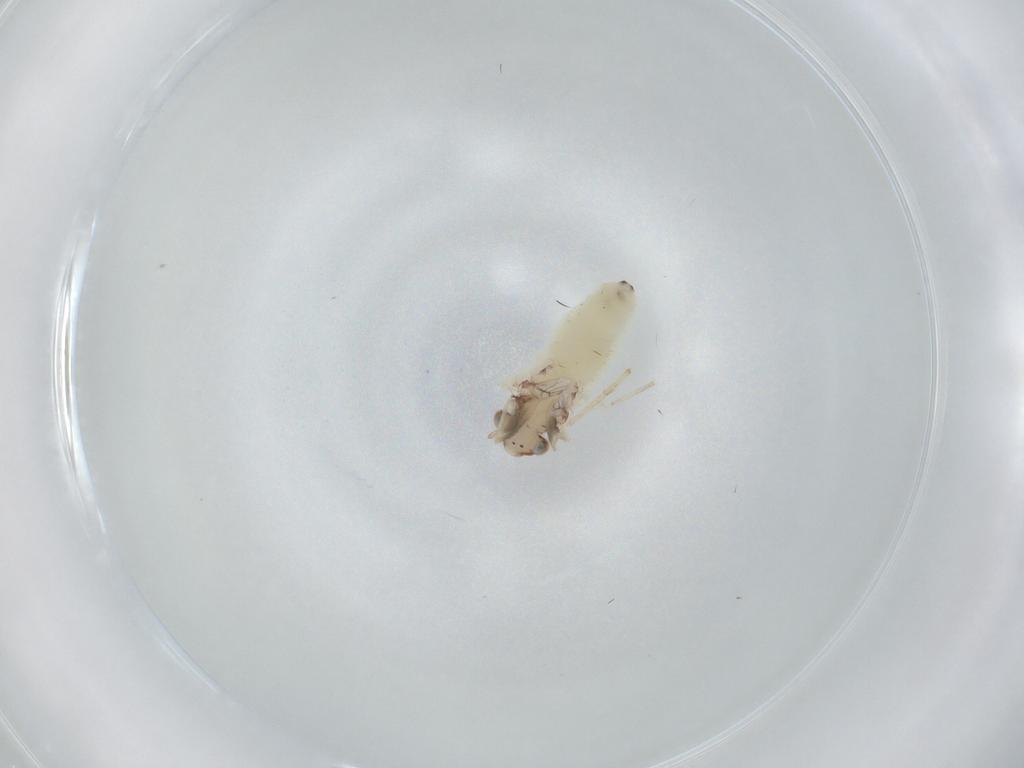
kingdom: Animalia
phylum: Arthropoda
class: Insecta
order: Psocodea
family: Lepidopsocidae
